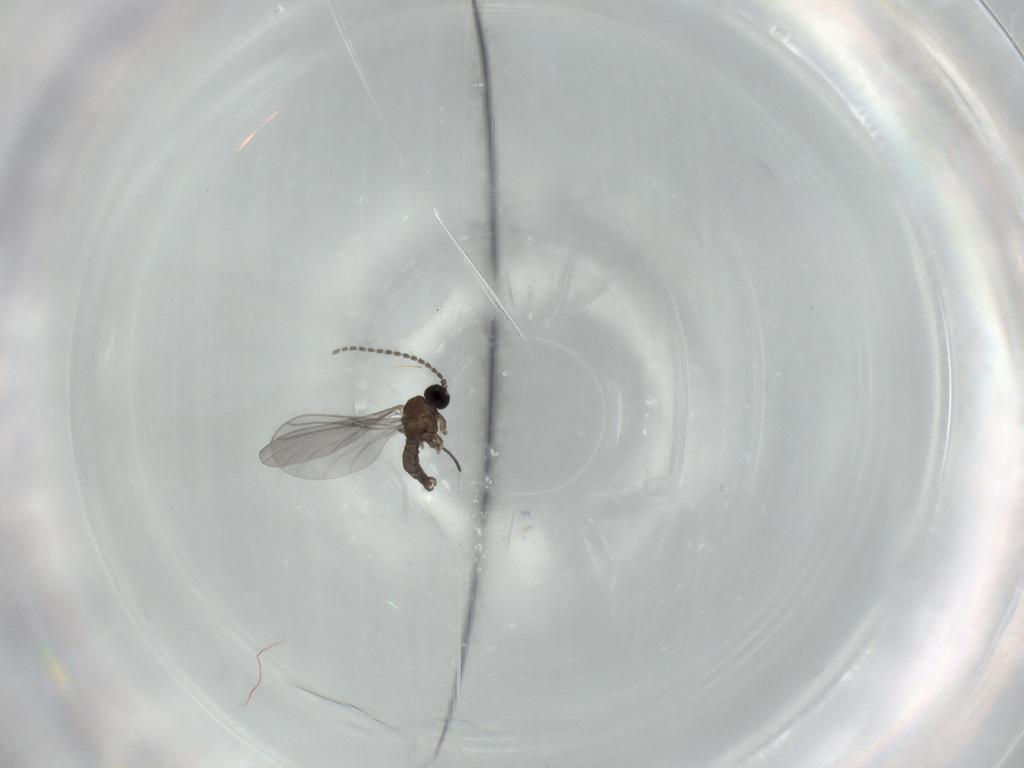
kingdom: Animalia
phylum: Arthropoda
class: Insecta
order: Diptera
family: Sciaridae
